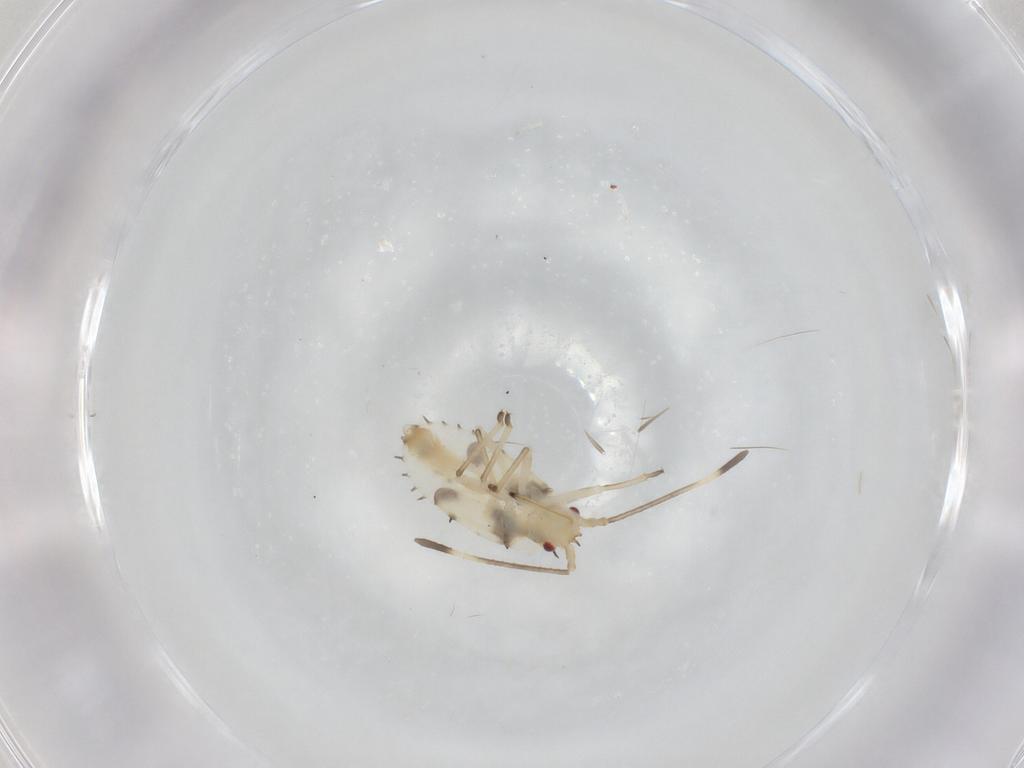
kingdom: Animalia
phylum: Arthropoda
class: Insecta
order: Hemiptera
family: Tingidae
